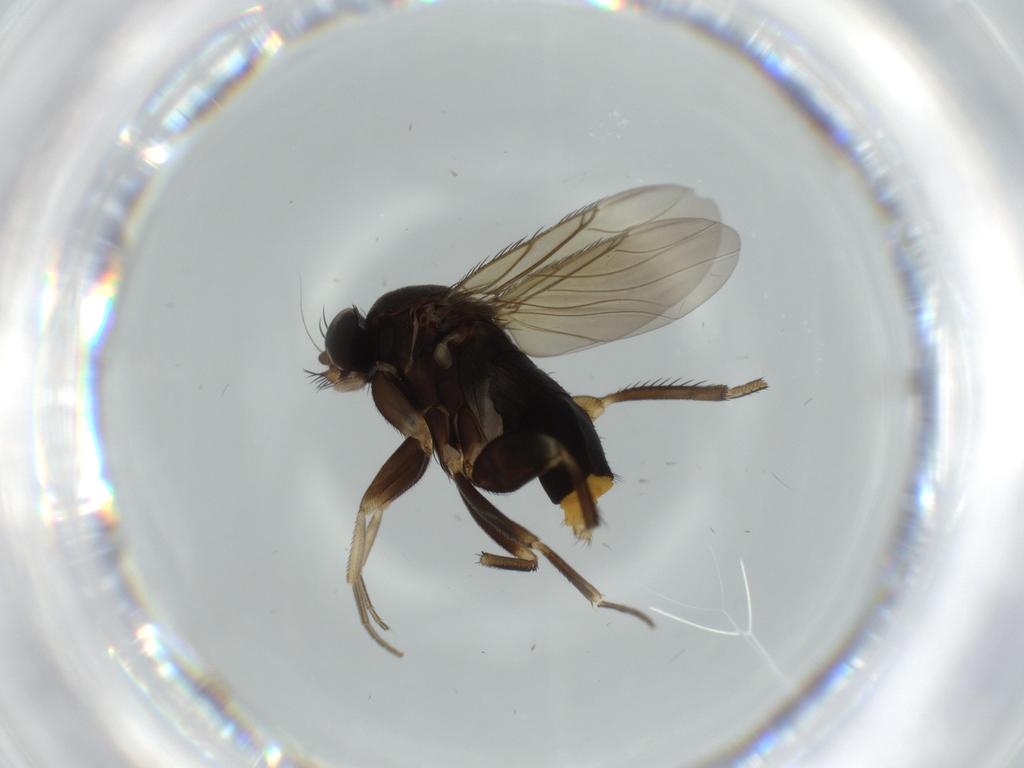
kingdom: Animalia
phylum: Arthropoda
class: Insecta
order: Diptera
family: Phoridae
